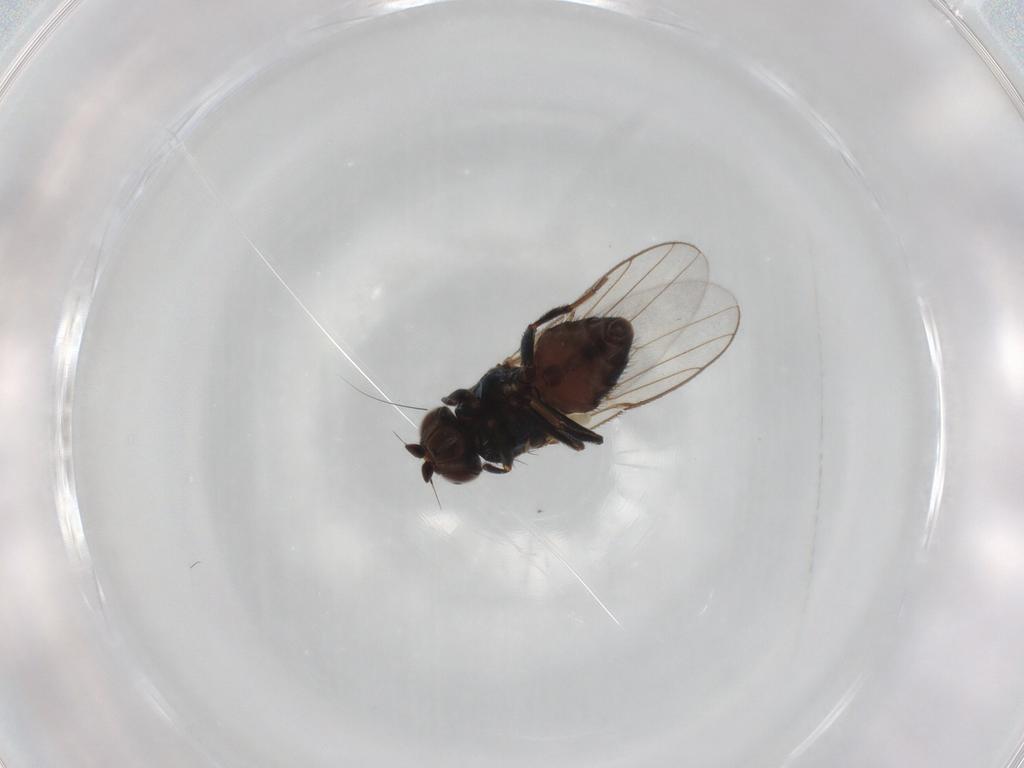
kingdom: Animalia
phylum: Arthropoda
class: Insecta
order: Diptera
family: Chloropidae
